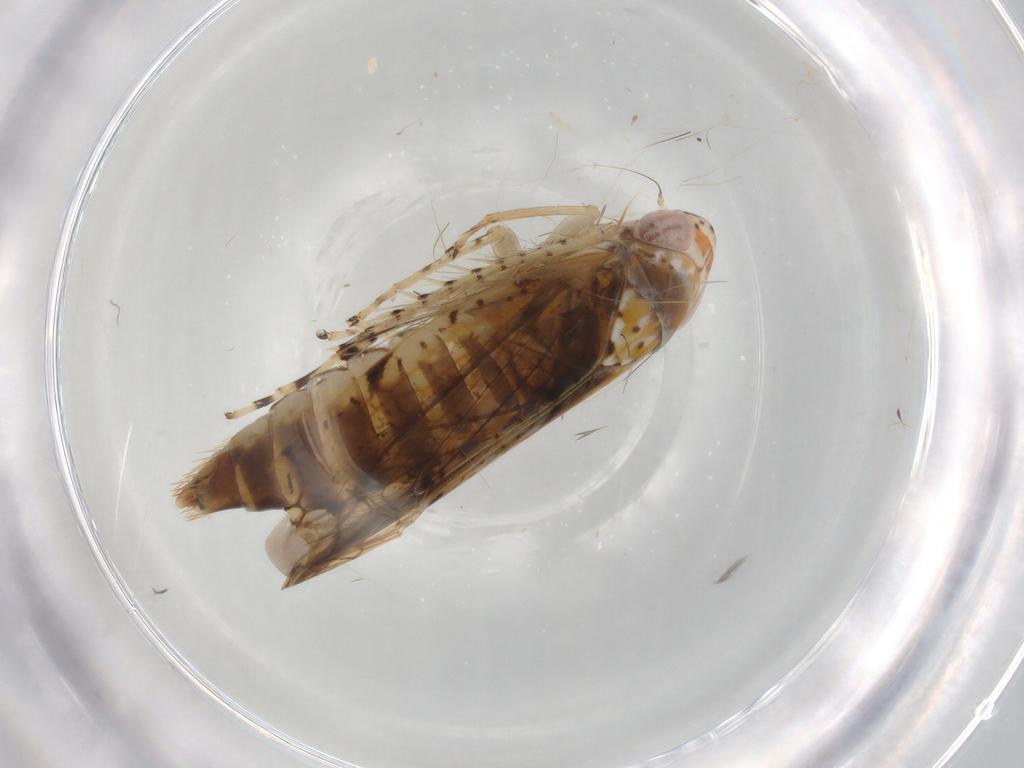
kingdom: Animalia
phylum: Arthropoda
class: Insecta
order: Hemiptera
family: Cicadellidae
